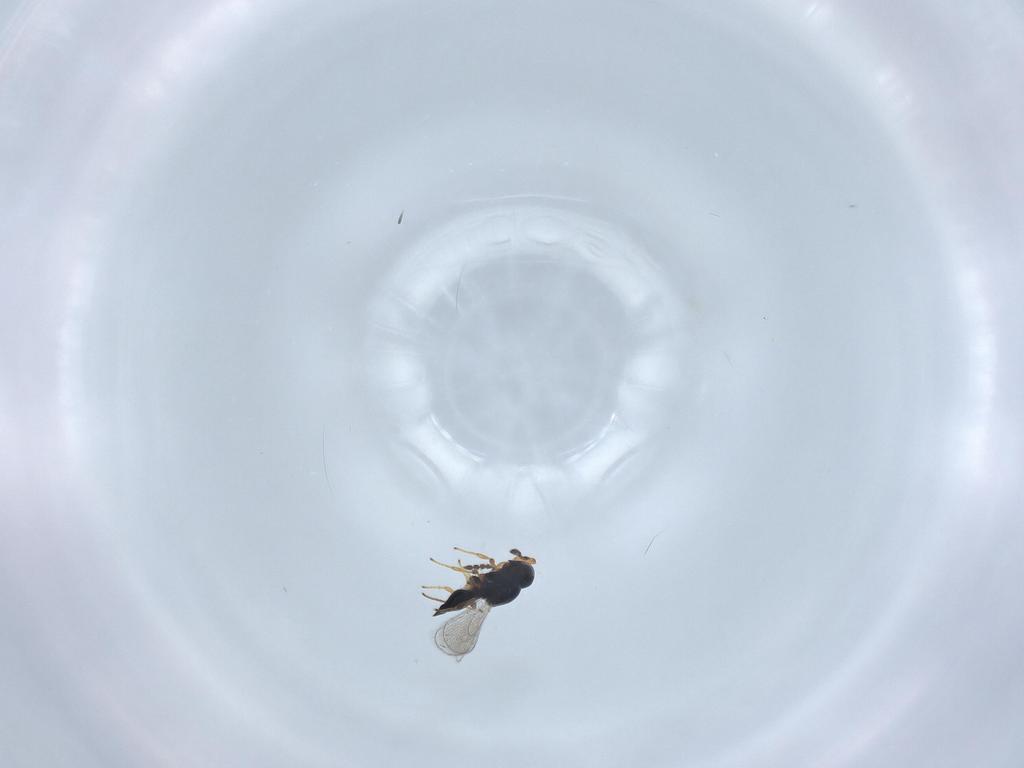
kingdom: Animalia
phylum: Arthropoda
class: Insecta
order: Hymenoptera
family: Platygastridae
